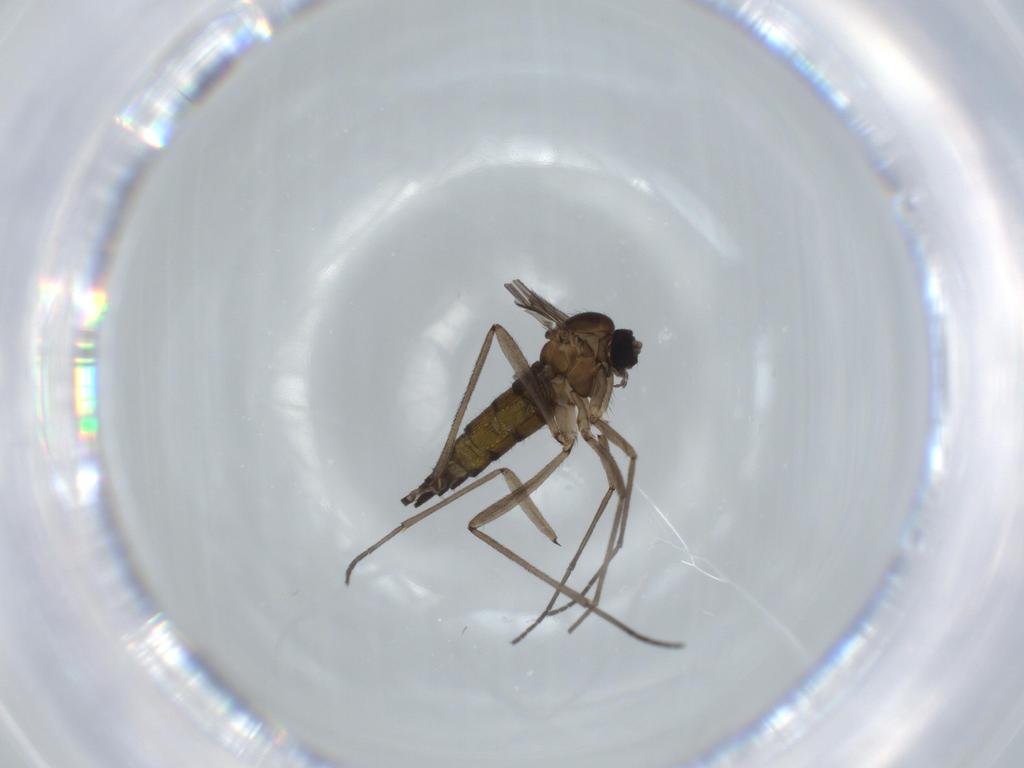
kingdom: Animalia
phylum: Arthropoda
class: Insecta
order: Diptera
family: Sciaridae
